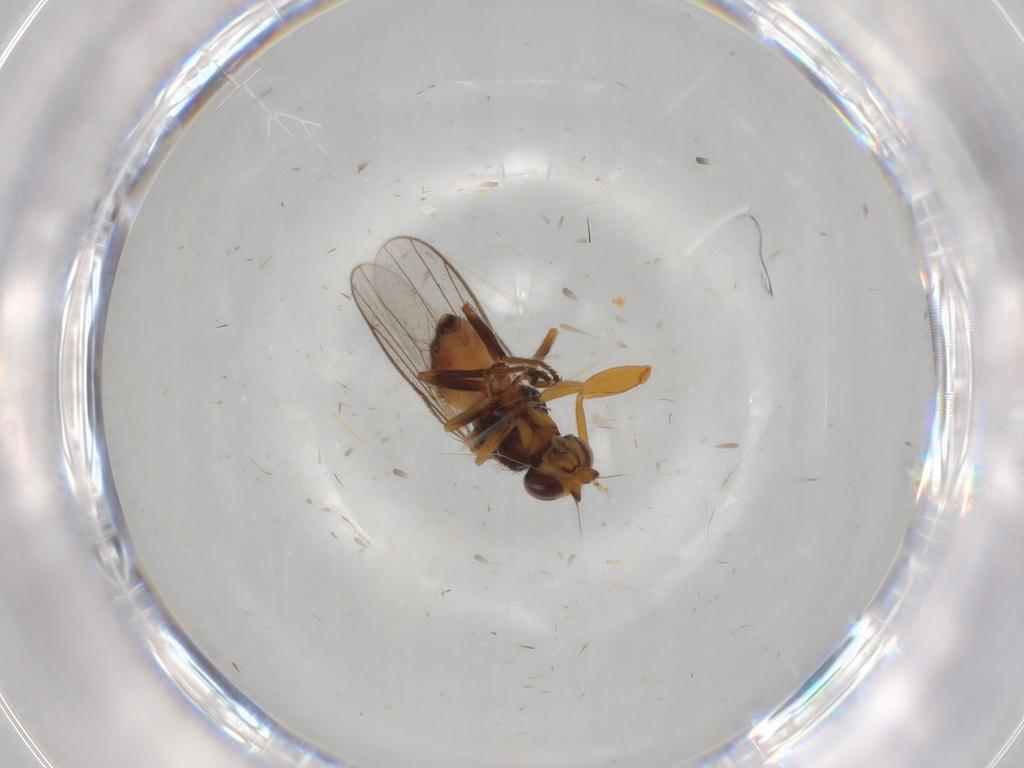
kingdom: Animalia
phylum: Arthropoda
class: Insecta
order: Diptera
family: Chloropidae
